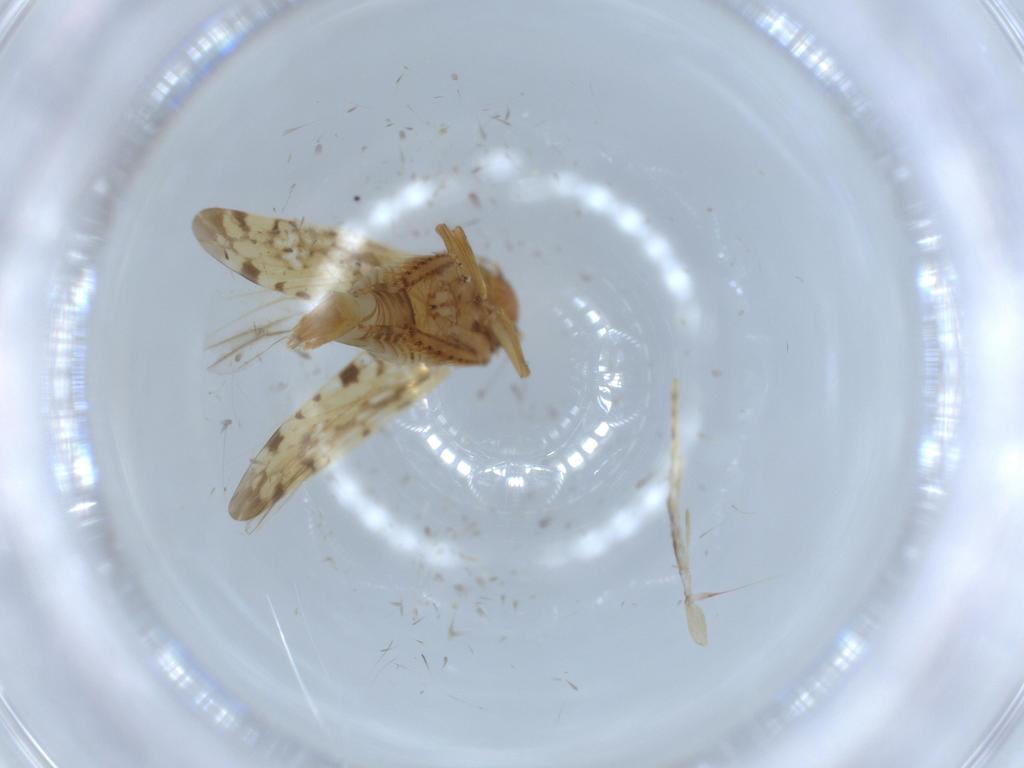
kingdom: Animalia
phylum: Arthropoda
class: Insecta
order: Hemiptera
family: Cicadellidae
